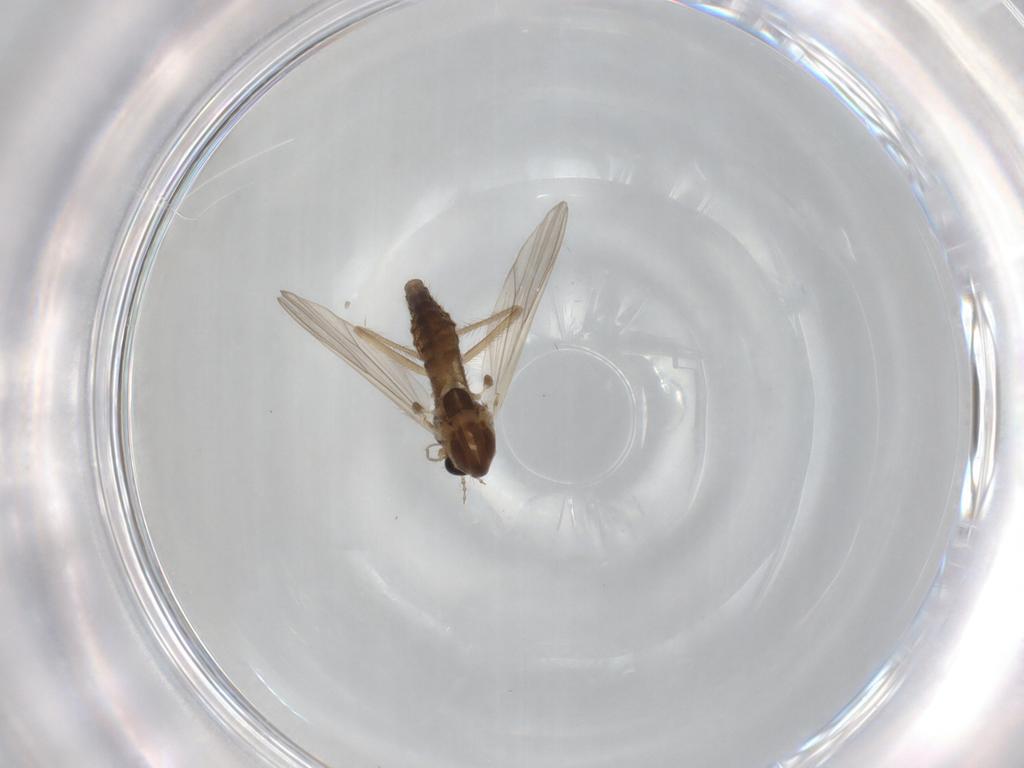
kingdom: Animalia
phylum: Arthropoda
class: Insecta
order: Diptera
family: Chironomidae
